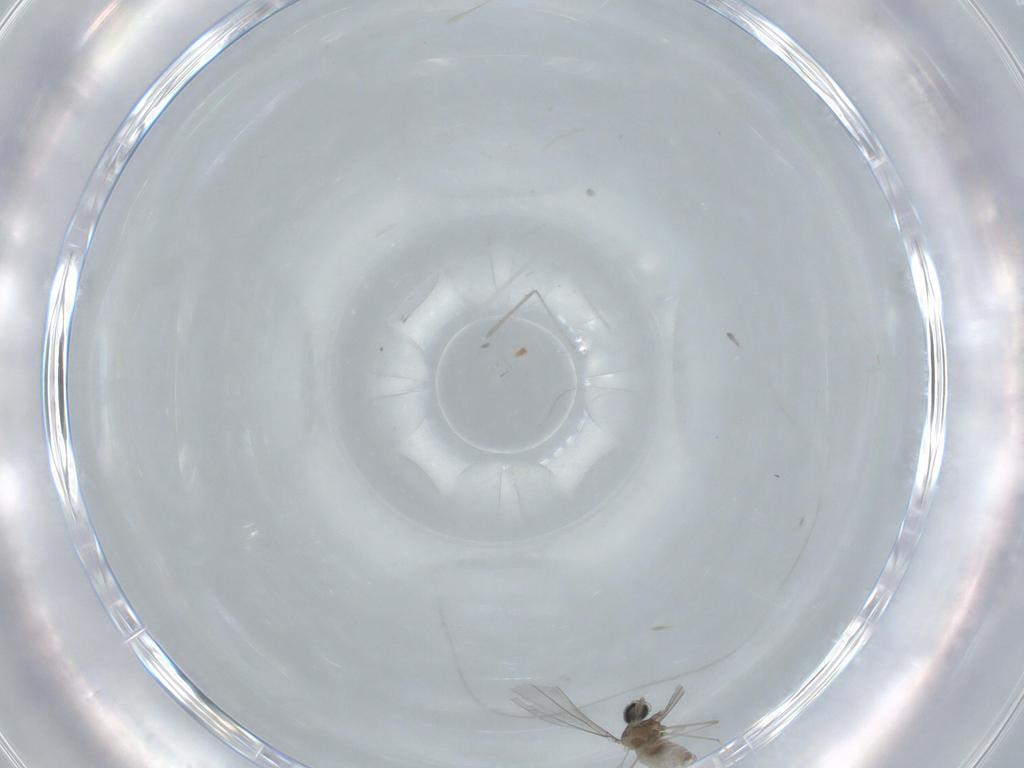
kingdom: Animalia
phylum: Arthropoda
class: Insecta
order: Diptera
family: Cecidomyiidae
